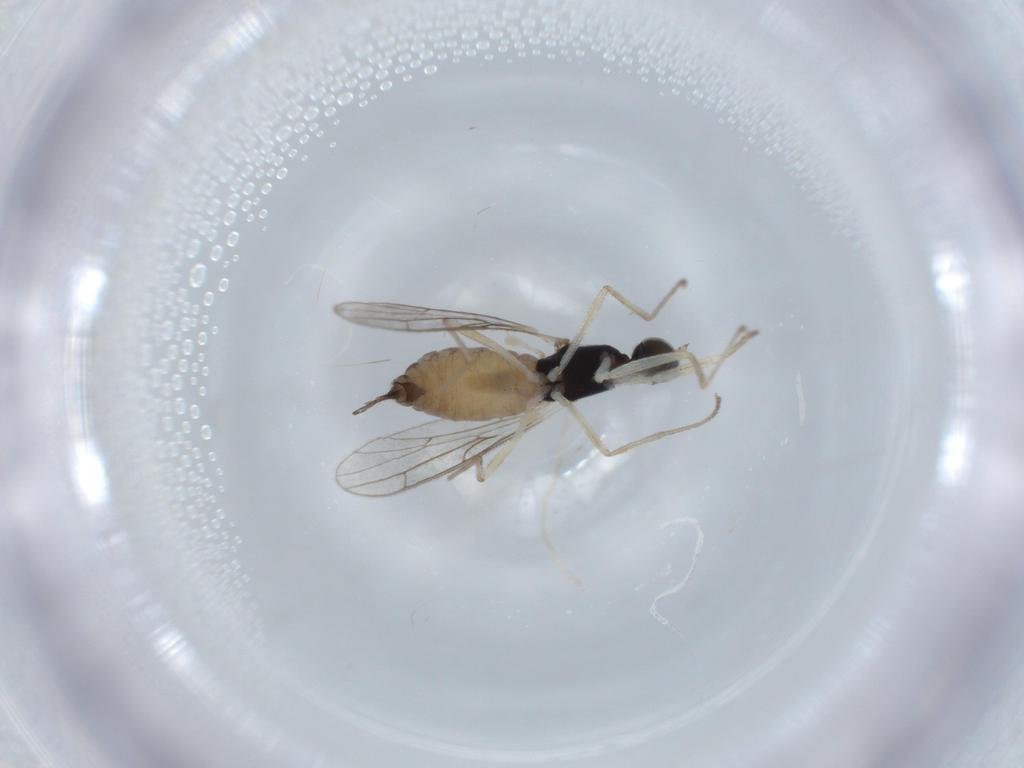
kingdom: Animalia
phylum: Arthropoda
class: Insecta
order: Diptera
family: Empididae
